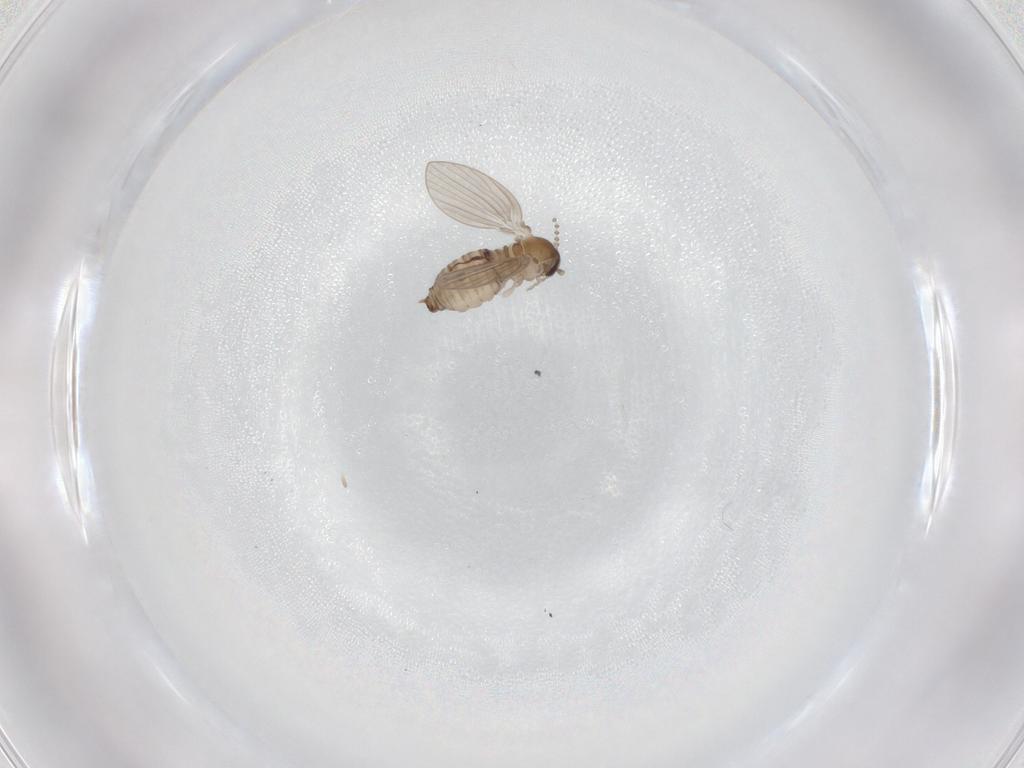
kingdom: Animalia
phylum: Arthropoda
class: Insecta
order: Diptera
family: Psychodidae
